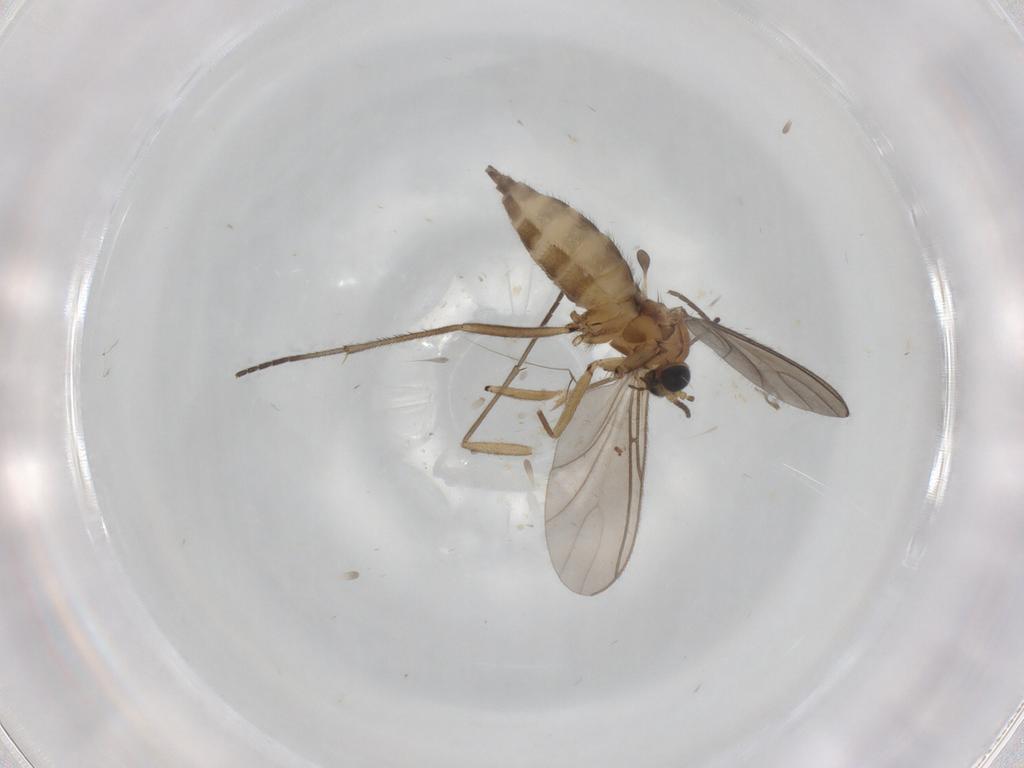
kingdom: Animalia
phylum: Arthropoda
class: Insecta
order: Diptera
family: Sciaridae
